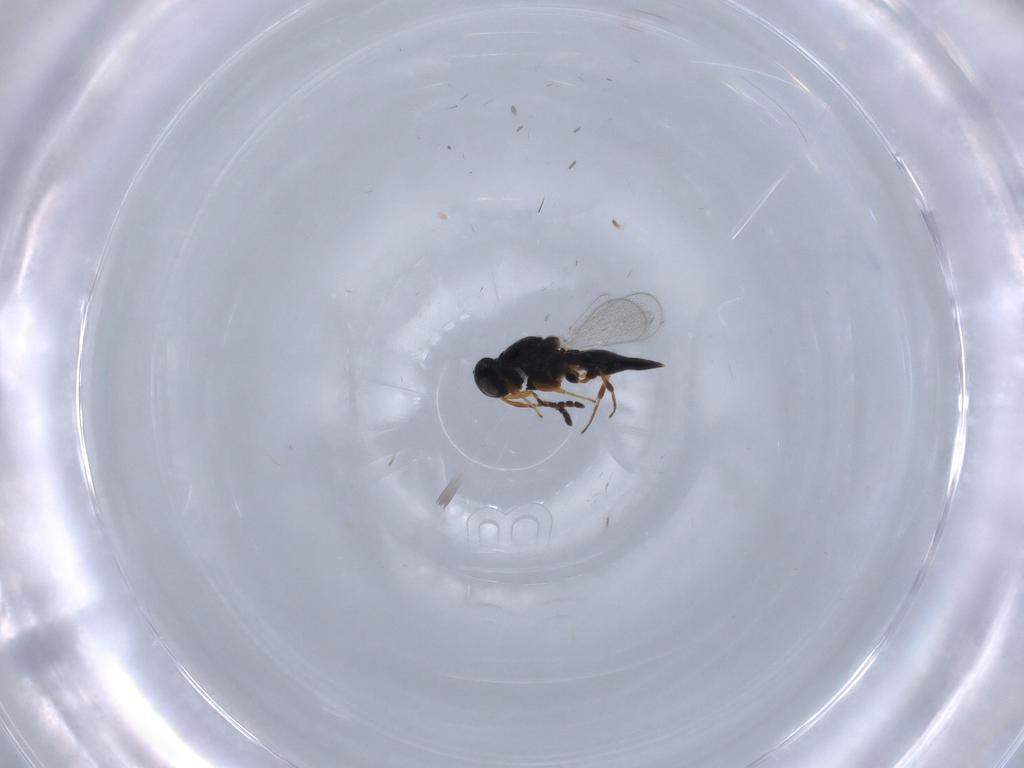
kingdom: Animalia
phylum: Arthropoda
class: Insecta
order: Hymenoptera
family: Platygastridae
